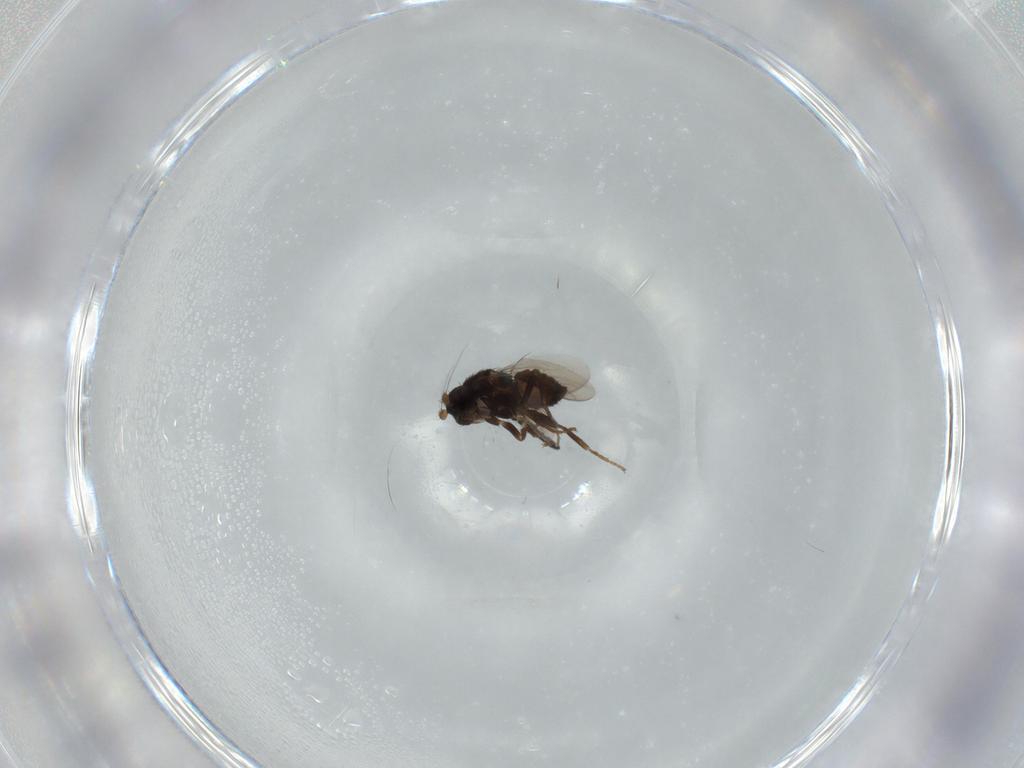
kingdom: Animalia
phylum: Arthropoda
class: Insecta
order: Diptera
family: Sphaeroceridae
